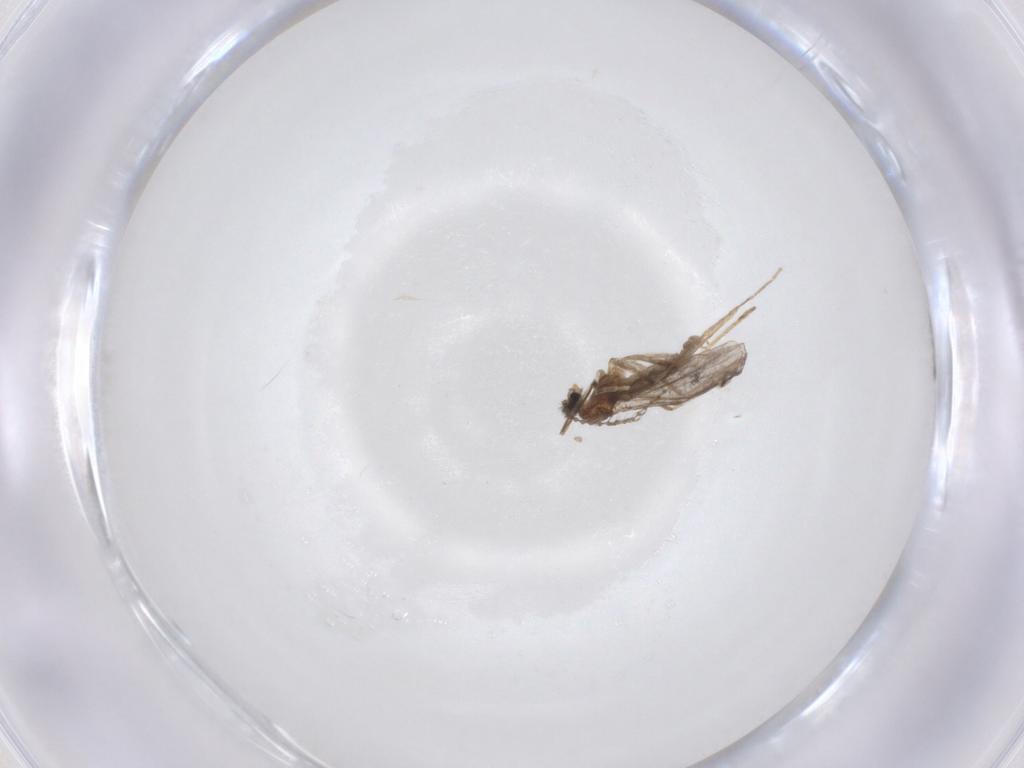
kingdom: Animalia
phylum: Arthropoda
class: Insecta
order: Diptera
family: Cecidomyiidae
